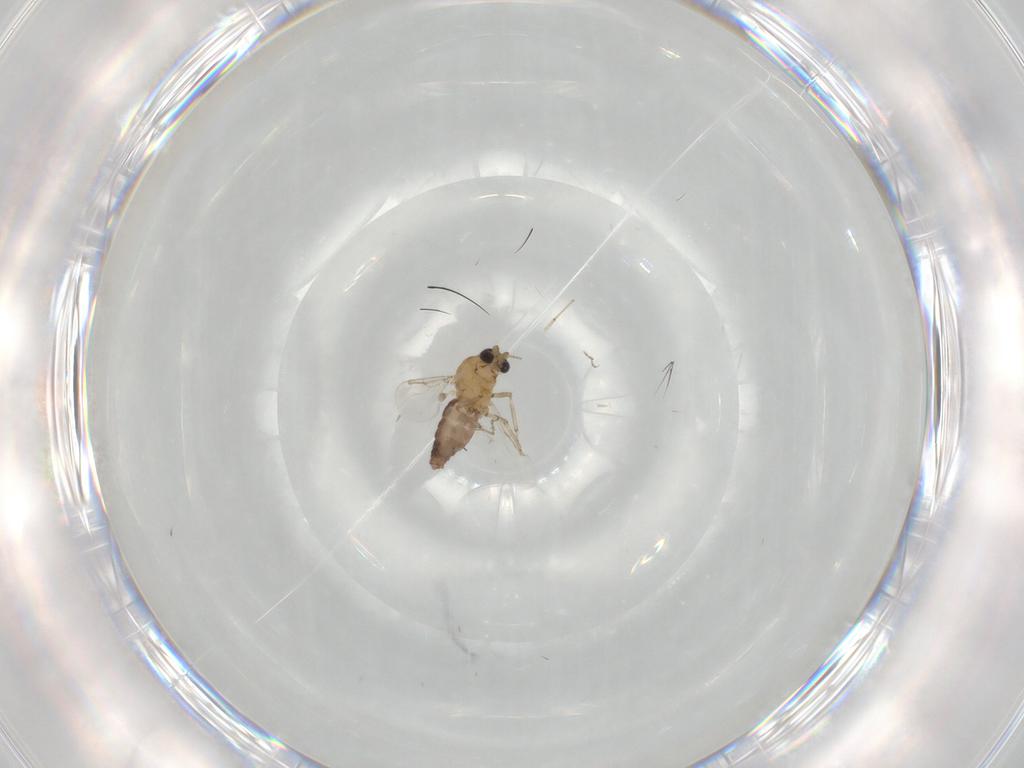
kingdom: Animalia
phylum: Arthropoda
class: Insecta
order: Diptera
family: Ceratopogonidae
